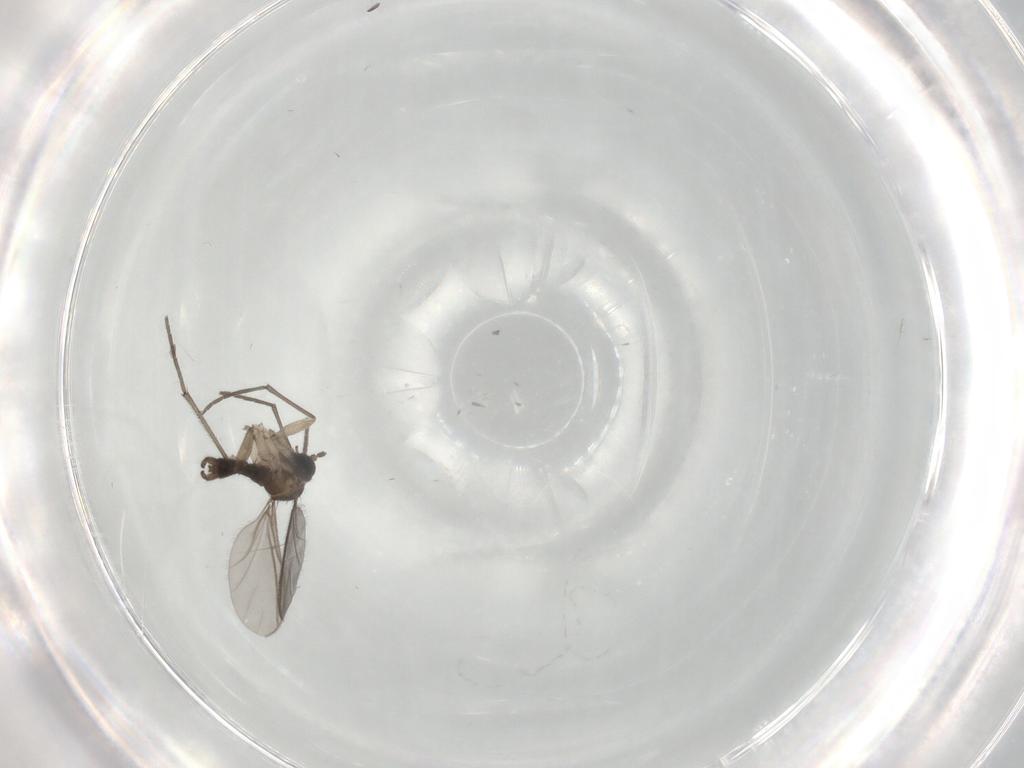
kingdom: Animalia
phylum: Arthropoda
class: Insecta
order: Diptera
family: Sciaridae
